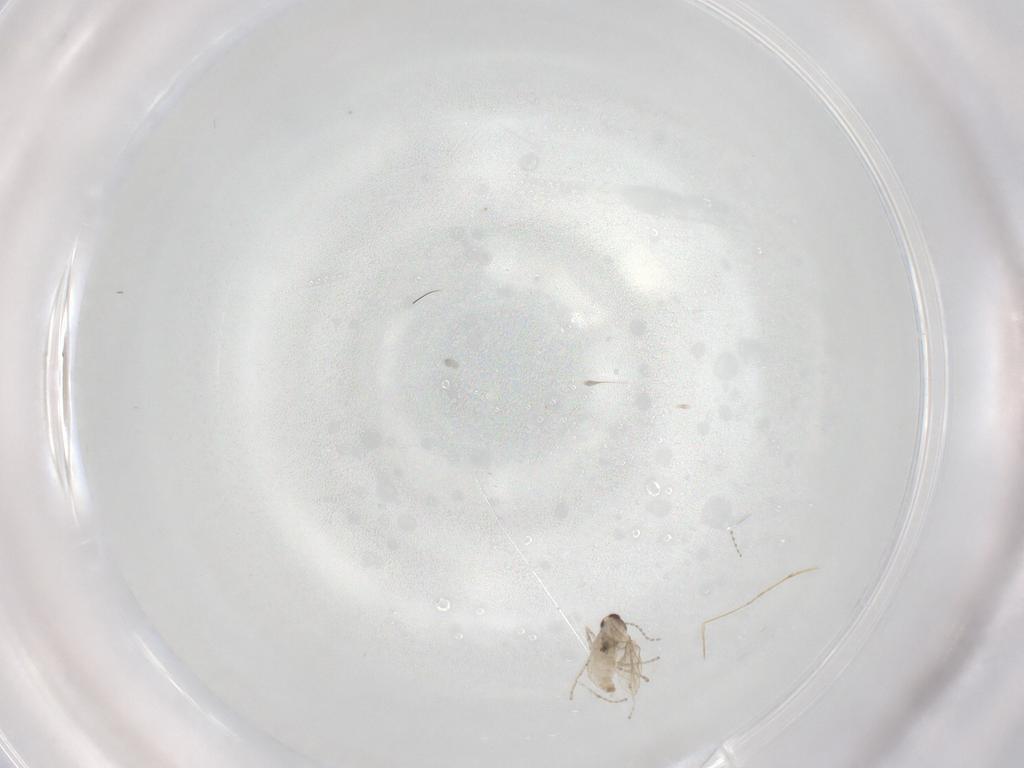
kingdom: Animalia
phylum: Arthropoda
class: Insecta
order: Diptera
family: Cecidomyiidae
